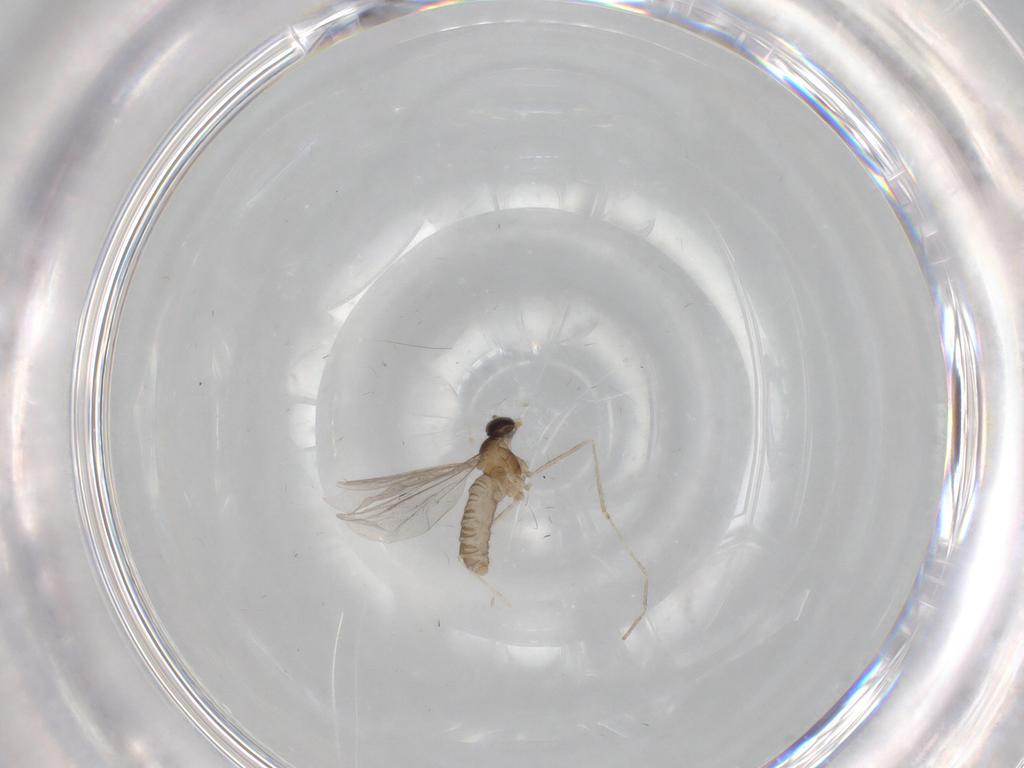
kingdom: Animalia
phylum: Arthropoda
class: Insecta
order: Diptera
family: Cecidomyiidae
